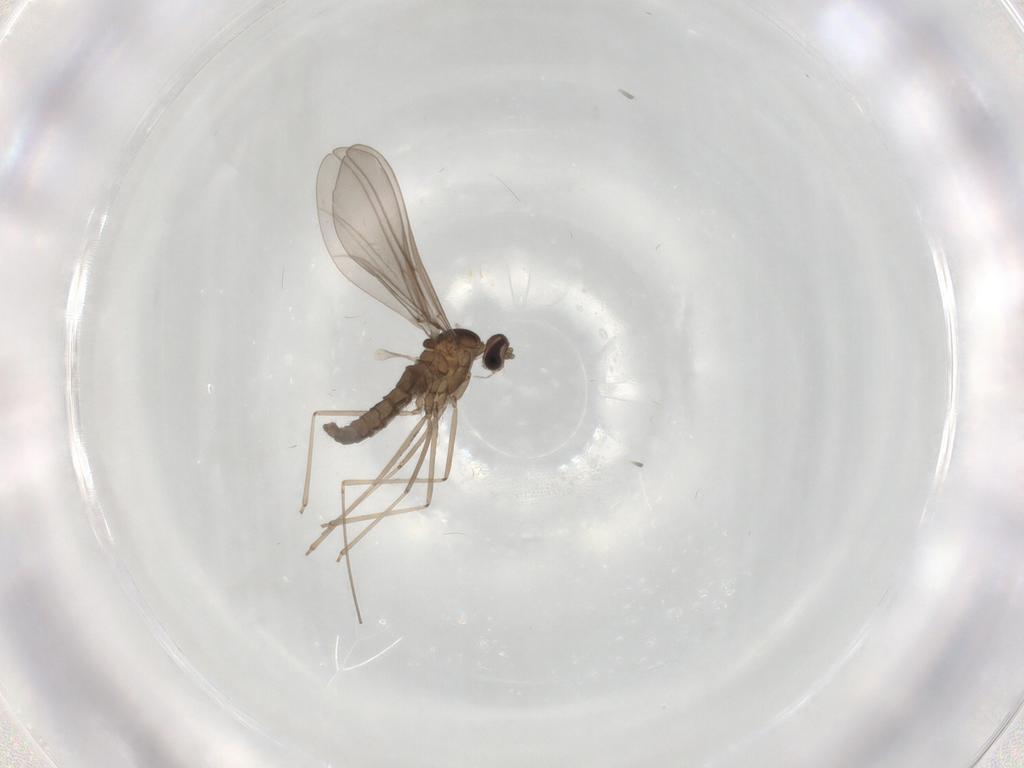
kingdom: Animalia
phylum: Arthropoda
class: Insecta
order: Diptera
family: Cecidomyiidae
